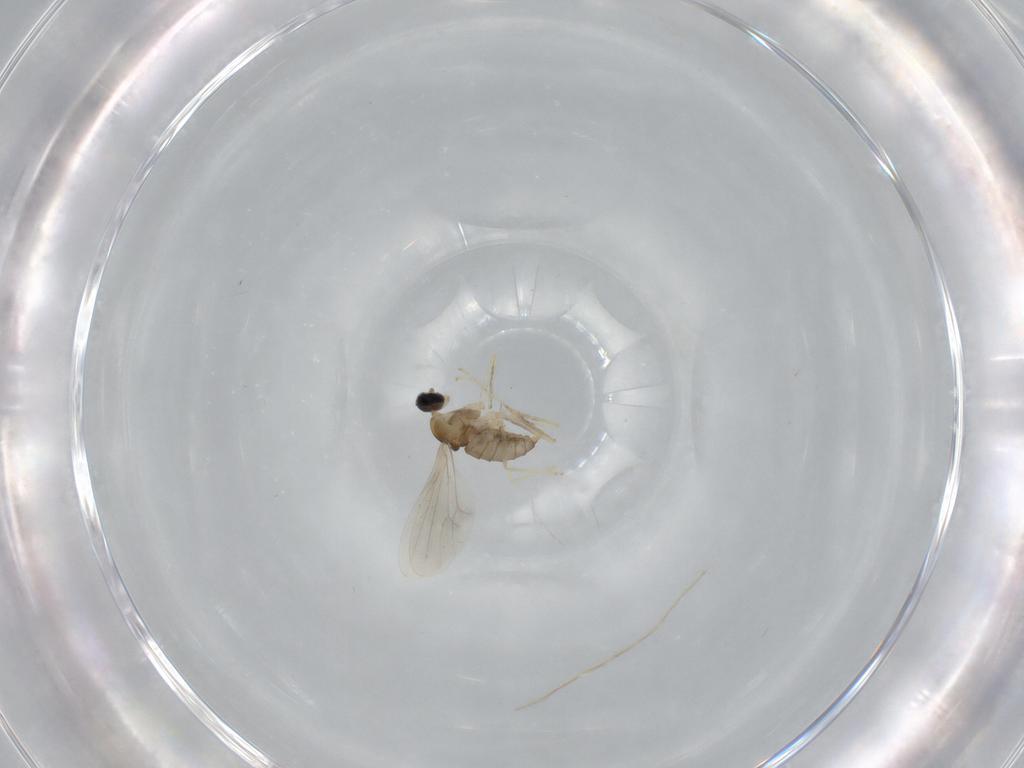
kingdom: Animalia
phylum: Arthropoda
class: Insecta
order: Diptera
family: Cecidomyiidae
